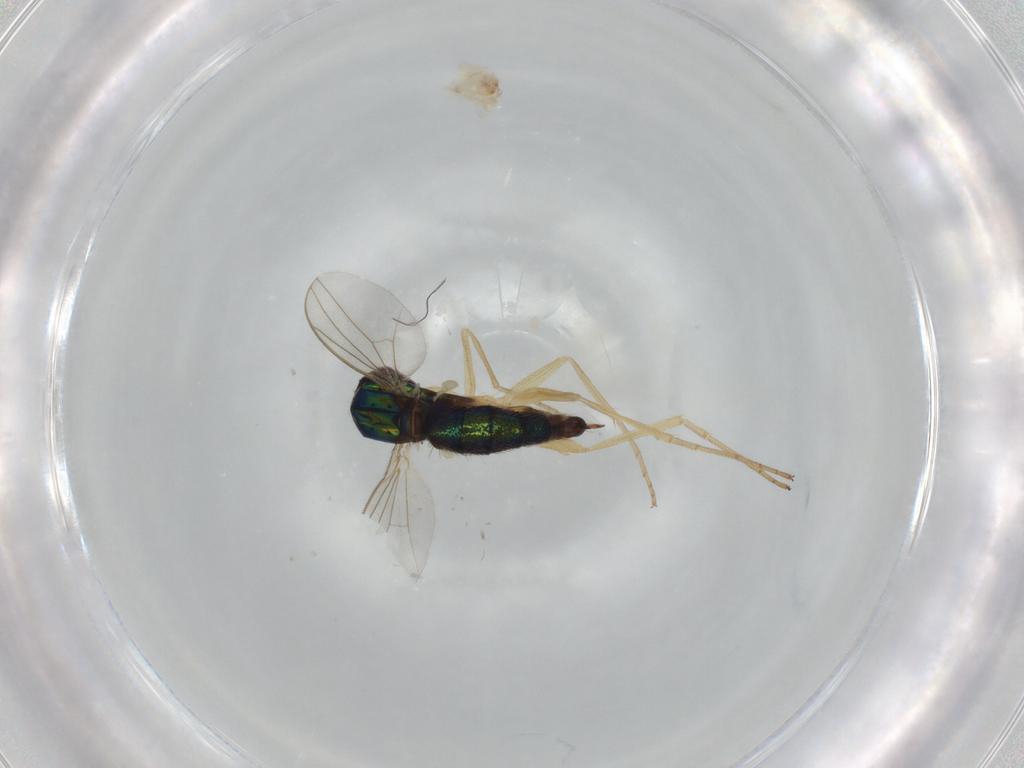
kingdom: Animalia
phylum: Arthropoda
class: Insecta
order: Diptera
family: Dolichopodidae
